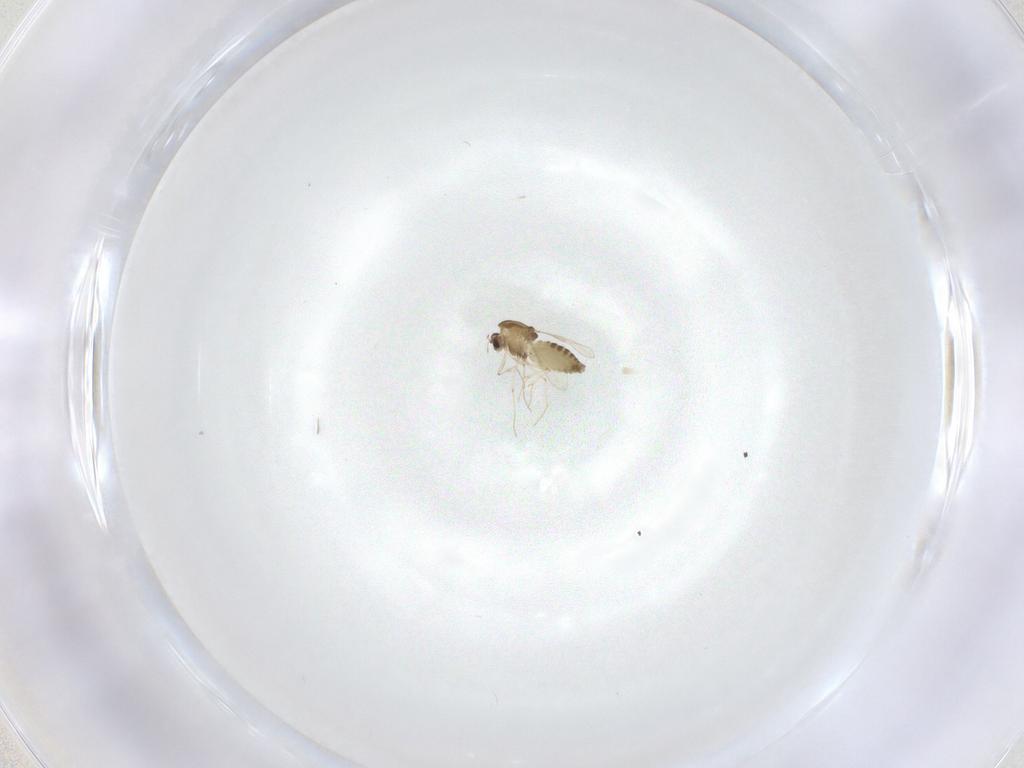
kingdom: Animalia
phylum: Arthropoda
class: Insecta
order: Diptera
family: Chironomidae
